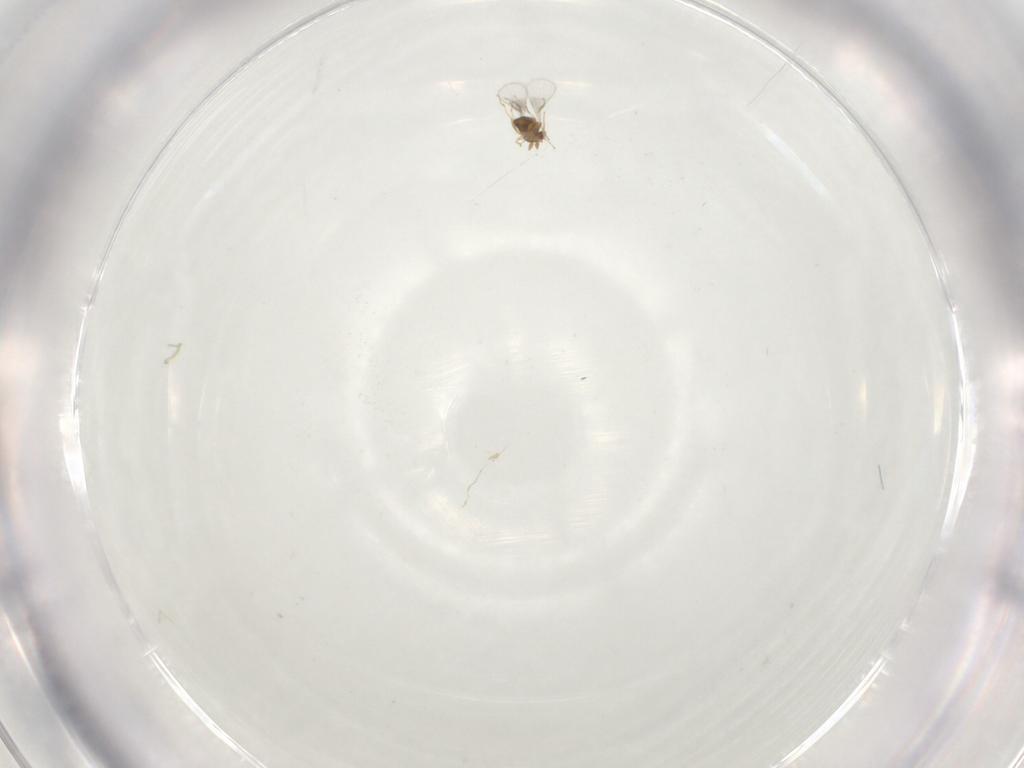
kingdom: Animalia
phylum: Arthropoda
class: Insecta
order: Hymenoptera
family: Trichogrammatidae
